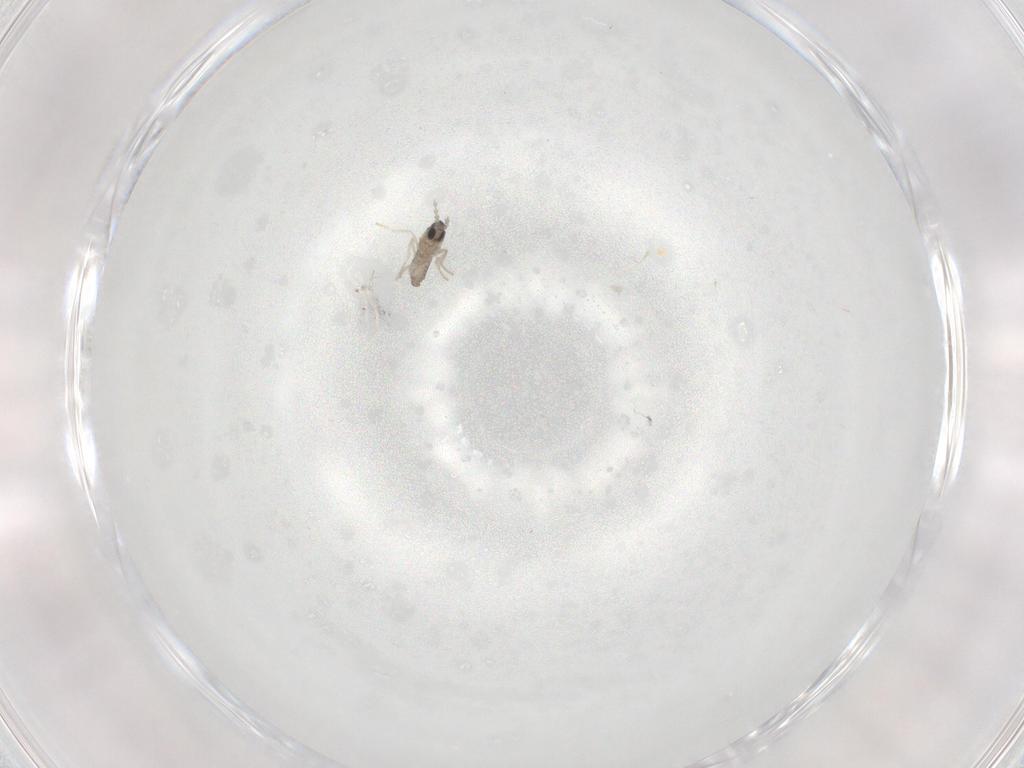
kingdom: Animalia
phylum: Arthropoda
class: Insecta
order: Diptera
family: Cecidomyiidae
